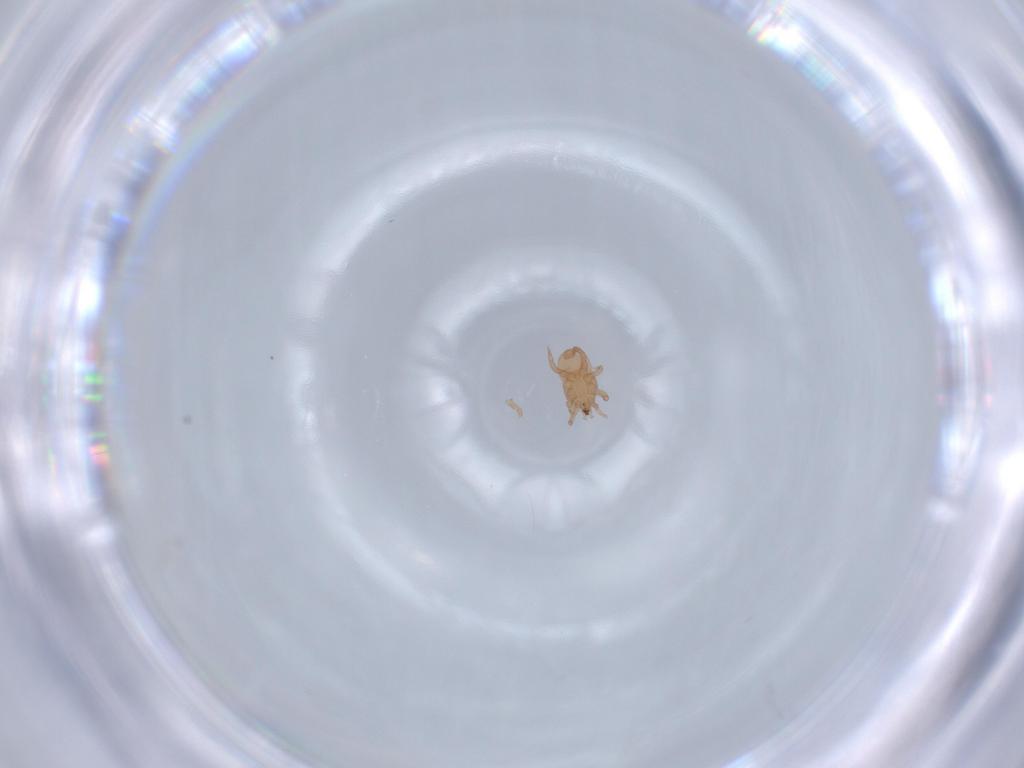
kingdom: Animalia
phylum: Arthropoda
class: Arachnida
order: Mesostigmata
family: Halolaelapidae
